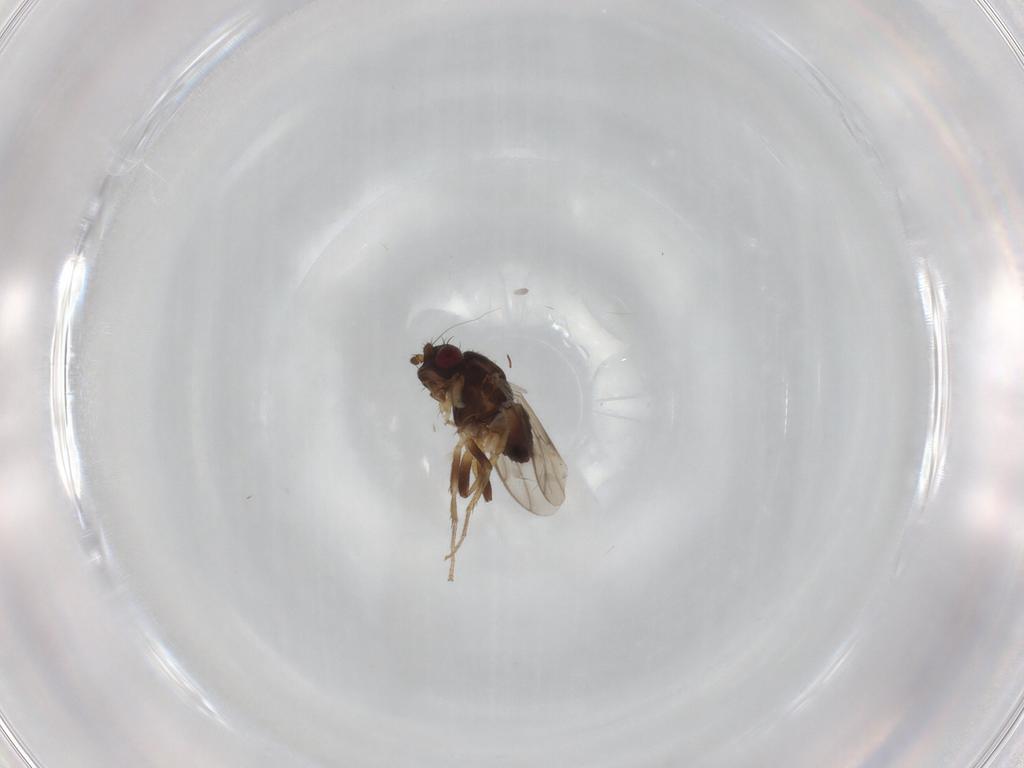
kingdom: Animalia
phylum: Arthropoda
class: Insecta
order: Diptera
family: Sphaeroceridae
